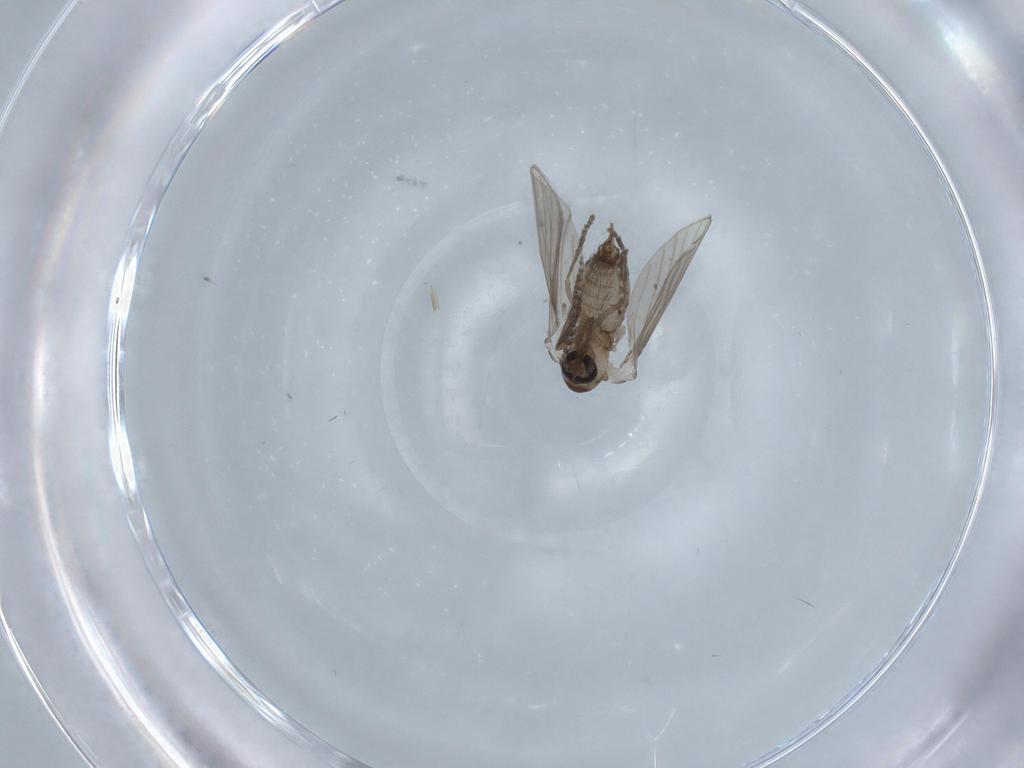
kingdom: Animalia
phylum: Arthropoda
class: Insecta
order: Diptera
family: Psychodidae
